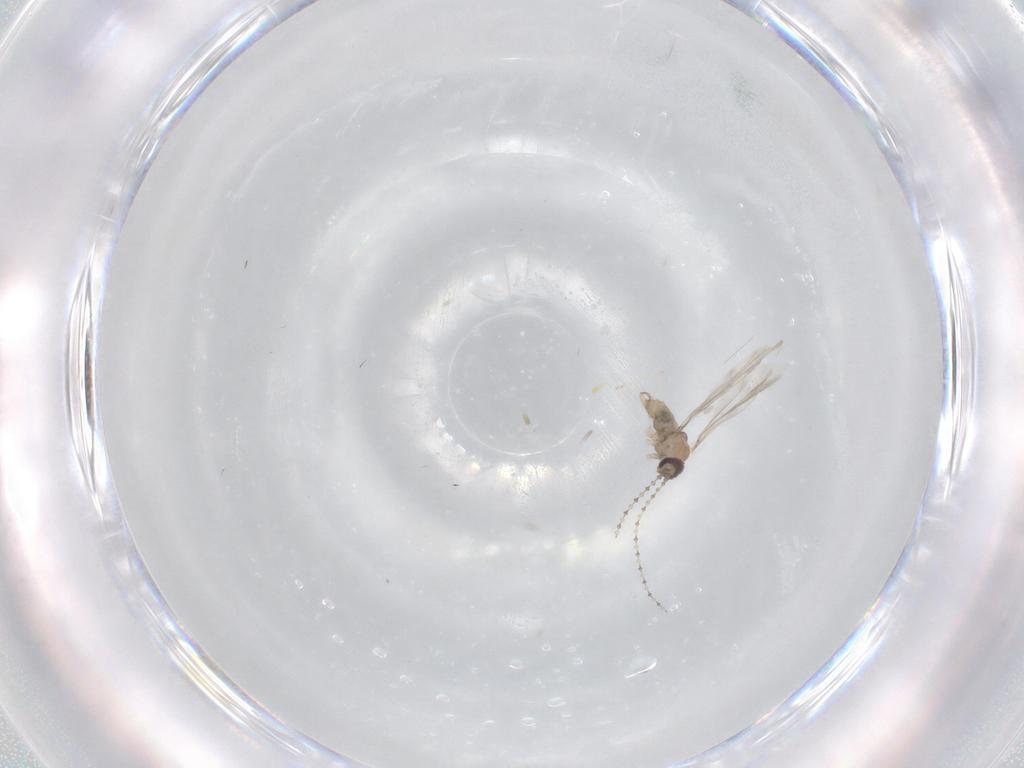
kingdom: Animalia
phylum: Arthropoda
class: Insecta
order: Diptera
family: Cecidomyiidae
